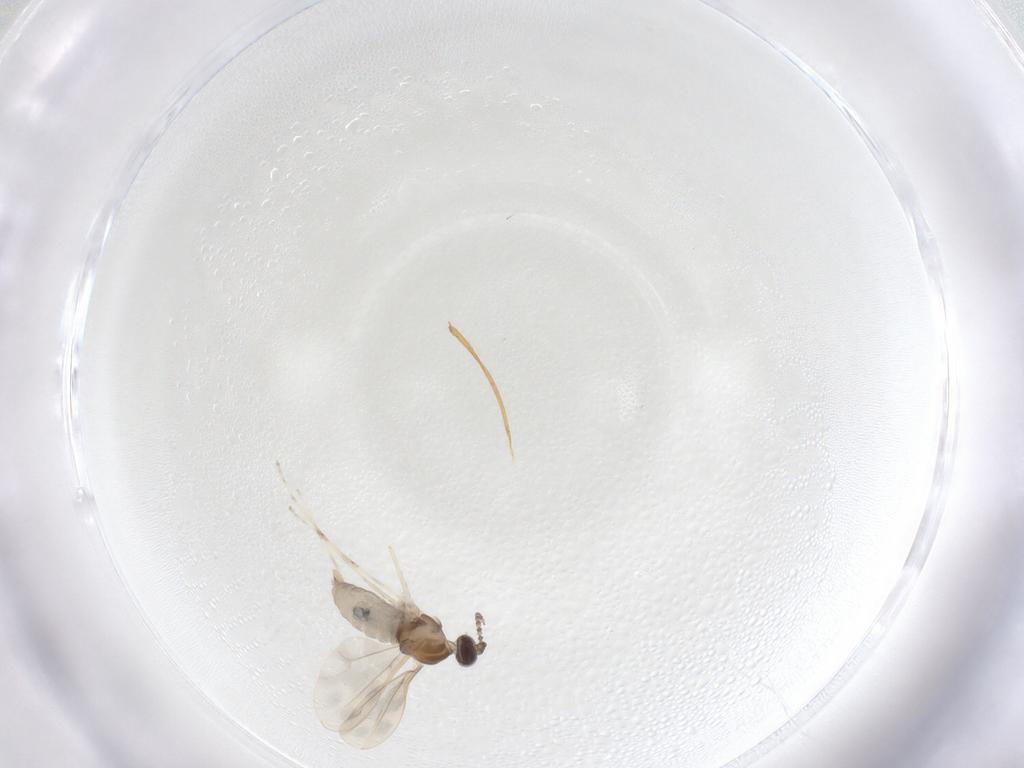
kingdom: Animalia
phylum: Arthropoda
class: Insecta
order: Diptera
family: Cecidomyiidae
